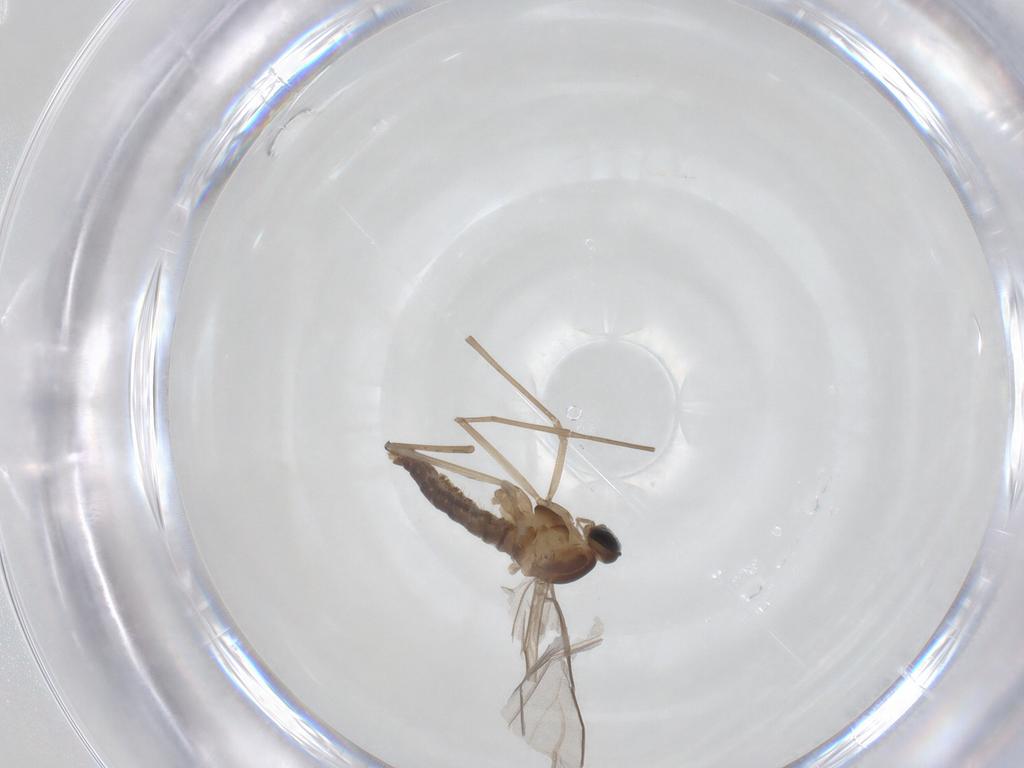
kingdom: Animalia
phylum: Arthropoda
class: Insecta
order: Diptera
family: Cecidomyiidae
